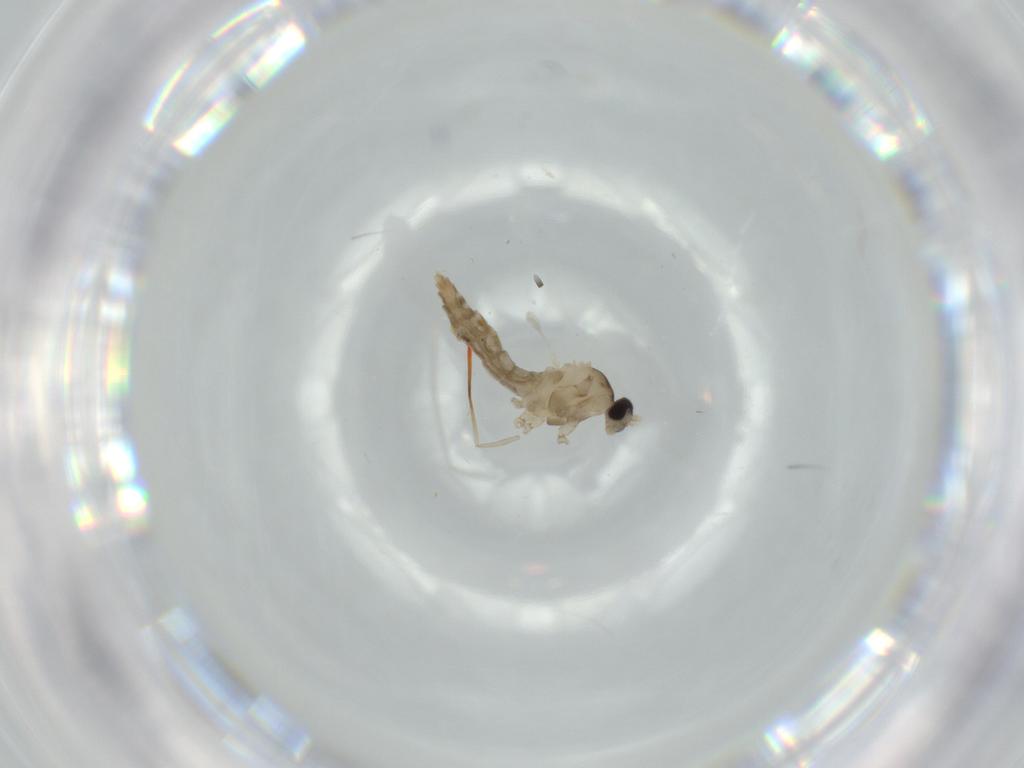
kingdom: Animalia
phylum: Arthropoda
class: Insecta
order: Diptera
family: Cecidomyiidae
